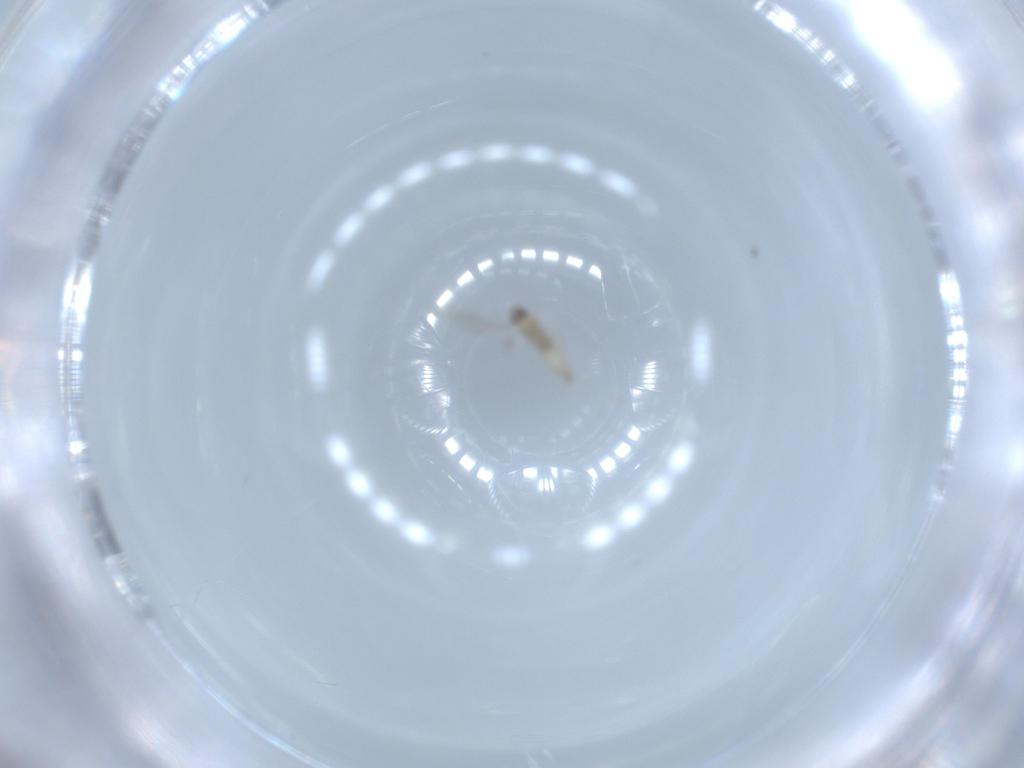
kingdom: Animalia
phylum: Arthropoda
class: Insecta
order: Diptera
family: Cecidomyiidae
